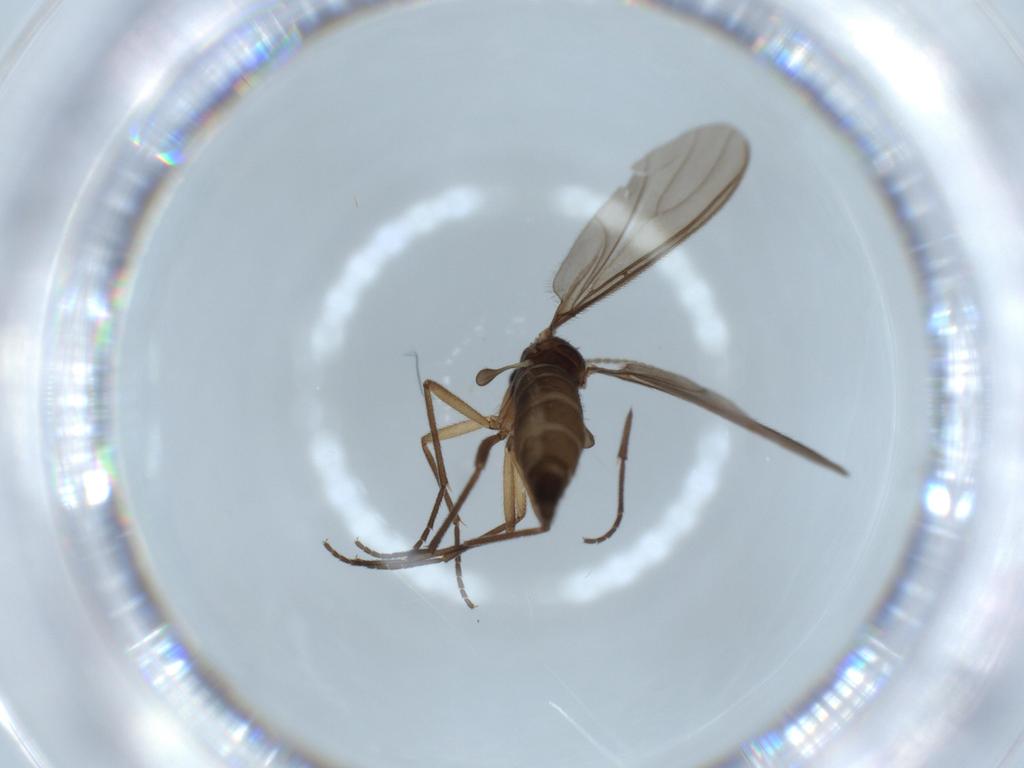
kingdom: Animalia
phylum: Arthropoda
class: Insecta
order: Diptera
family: Sciaridae
